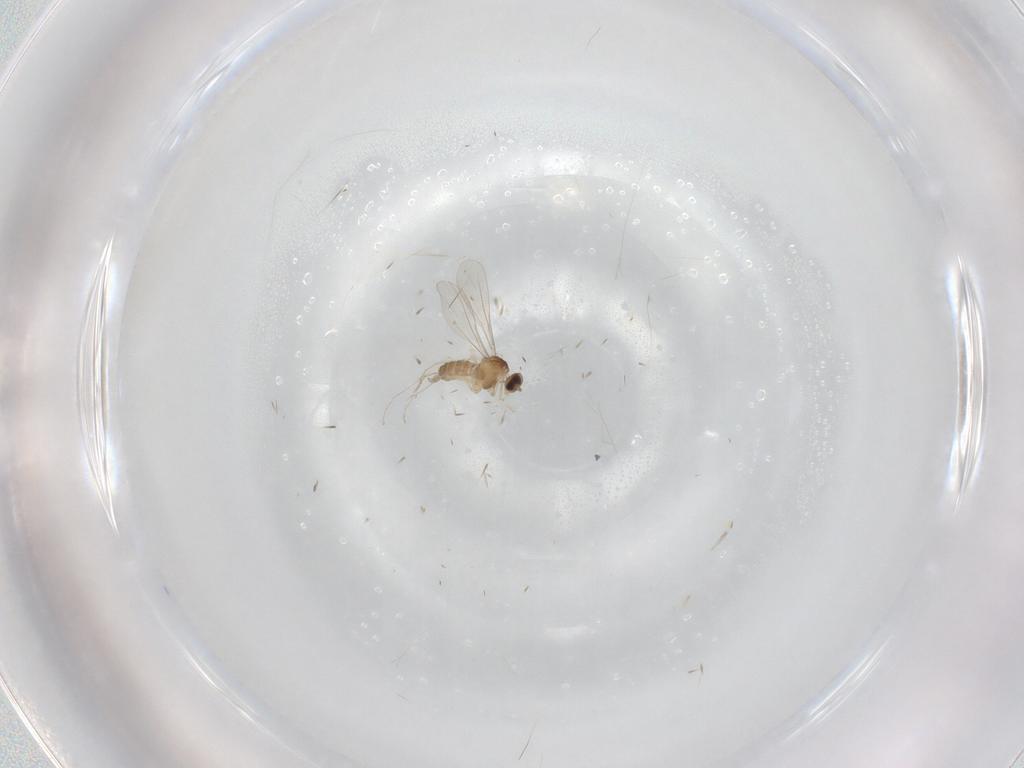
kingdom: Animalia
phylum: Arthropoda
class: Insecta
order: Diptera
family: Cecidomyiidae
